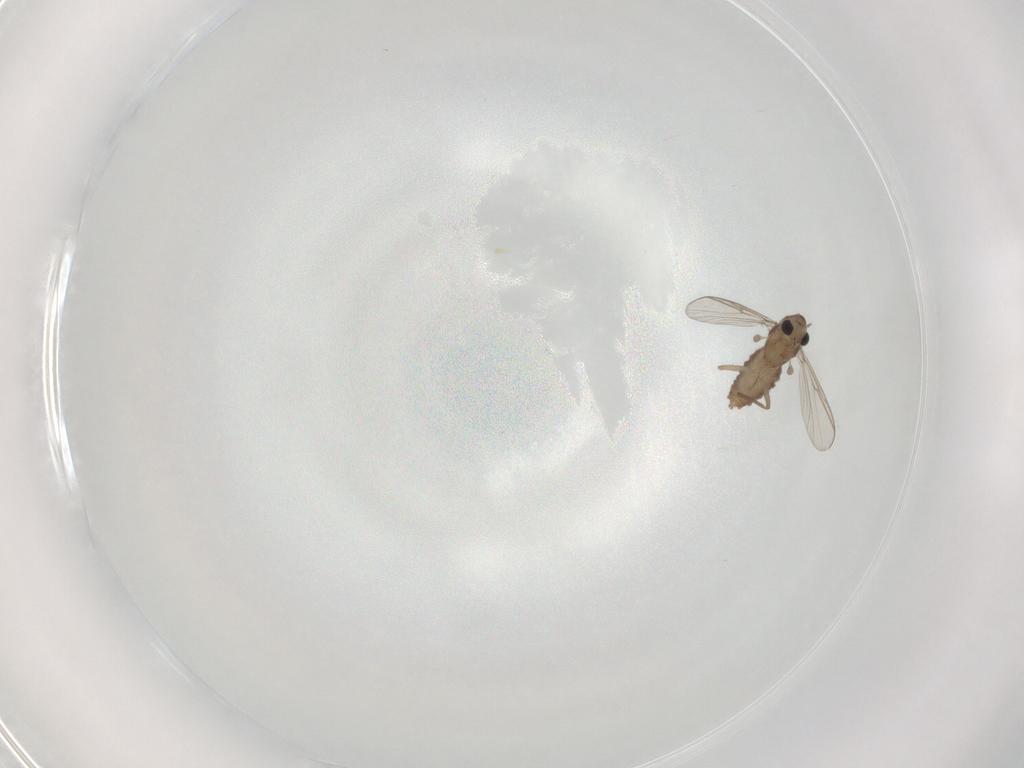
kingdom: Animalia
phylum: Arthropoda
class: Insecta
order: Diptera
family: Chironomidae
